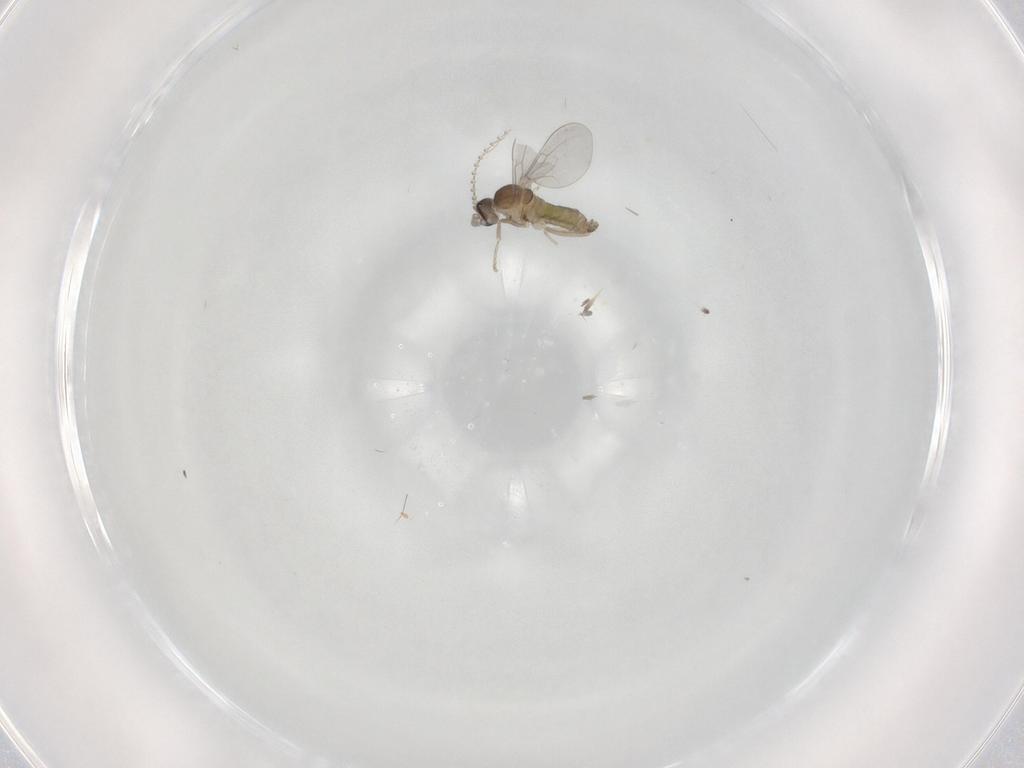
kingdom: Animalia
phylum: Arthropoda
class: Insecta
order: Diptera
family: Cecidomyiidae
